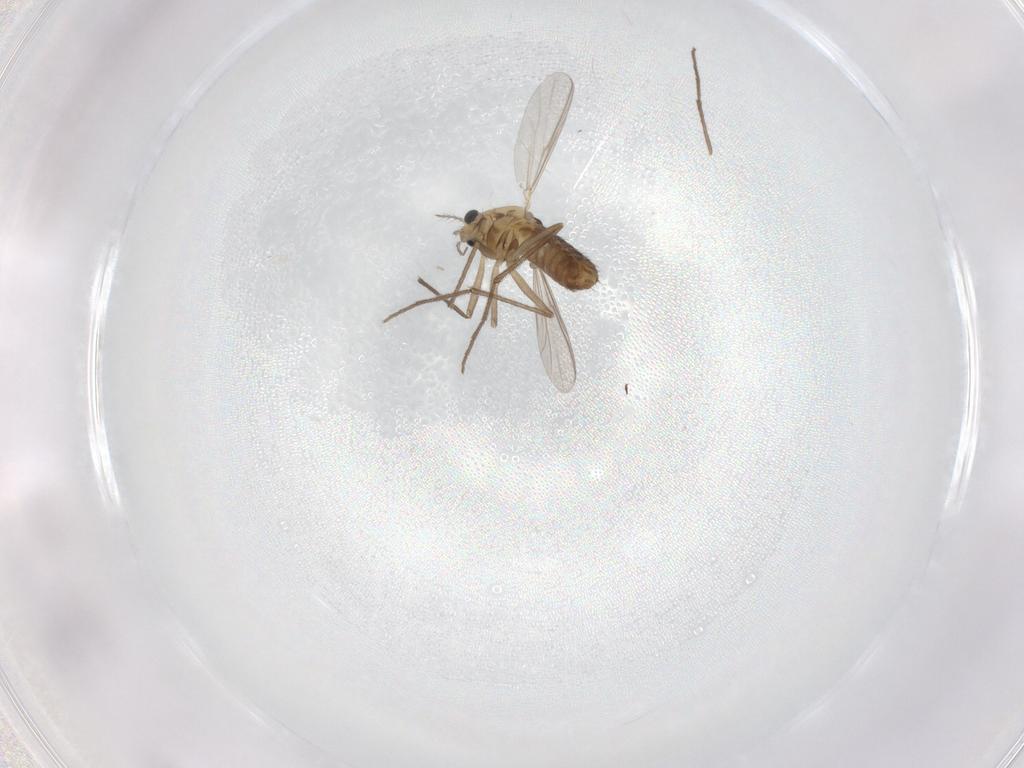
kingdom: Animalia
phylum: Arthropoda
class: Insecta
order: Diptera
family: Chironomidae
